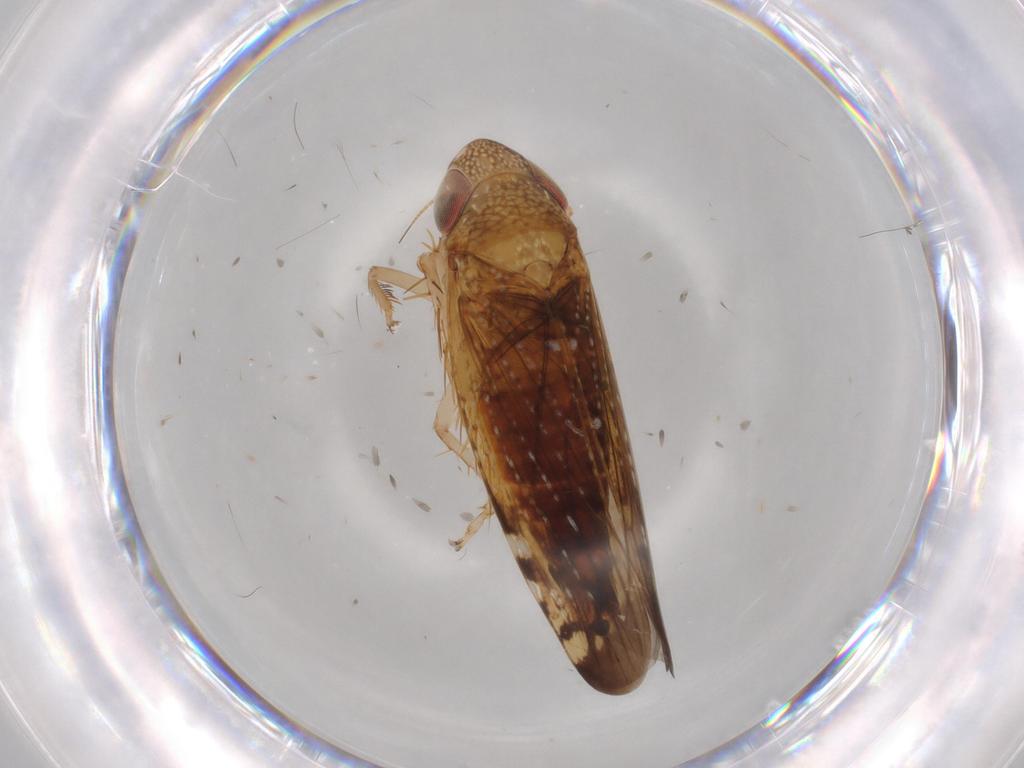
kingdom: Animalia
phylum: Arthropoda
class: Insecta
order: Hemiptera
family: Cicadellidae
